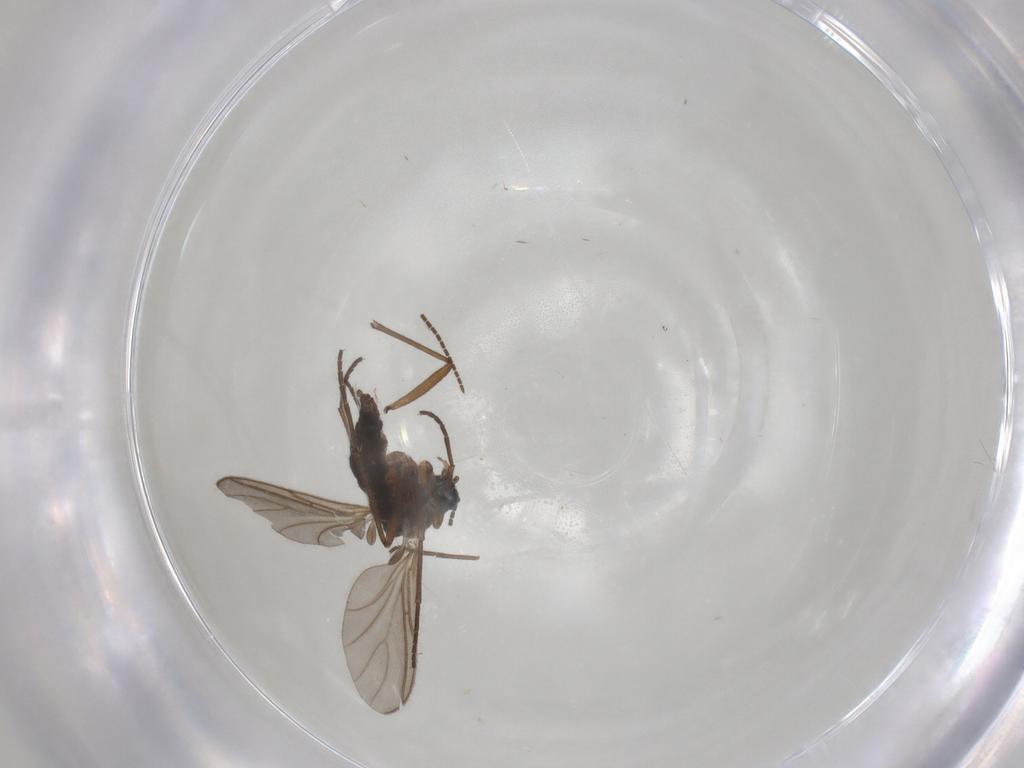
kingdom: Animalia
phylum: Arthropoda
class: Insecta
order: Diptera
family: Sciaridae
